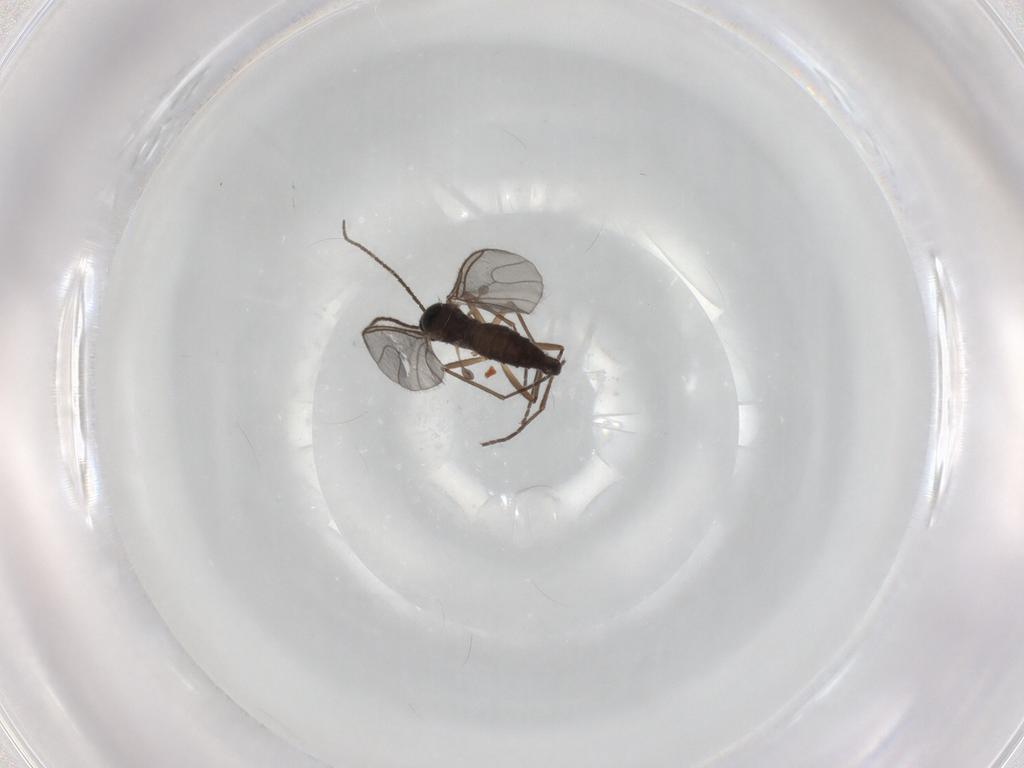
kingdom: Animalia
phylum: Arthropoda
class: Insecta
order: Diptera
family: Sciaridae
